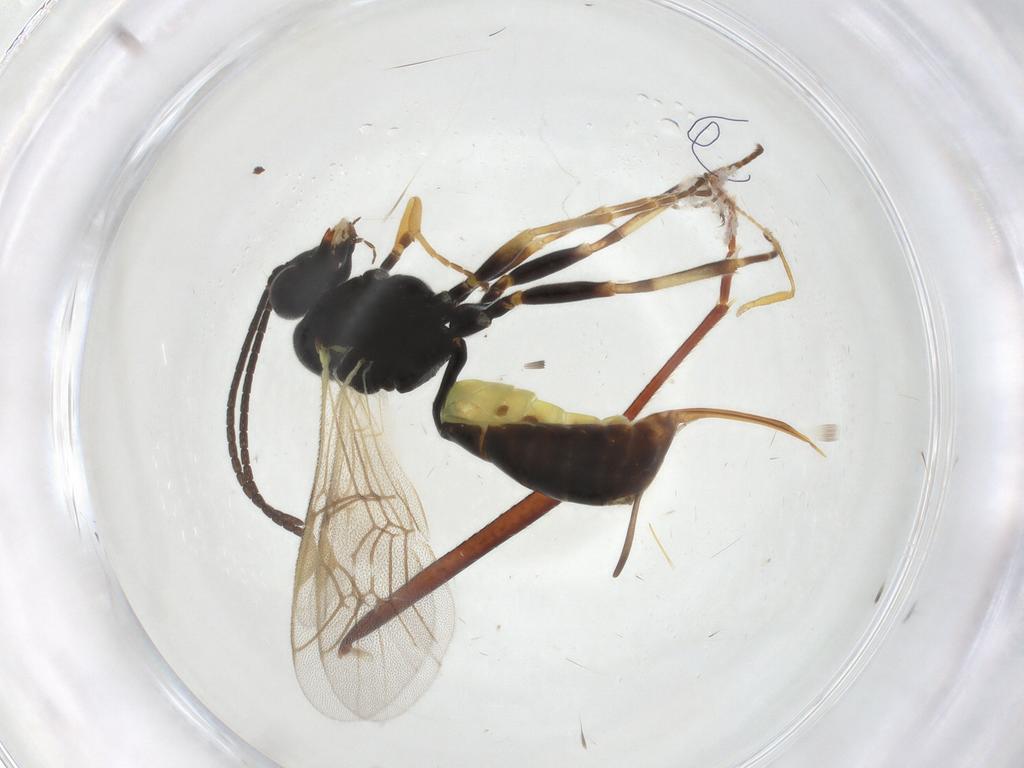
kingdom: Animalia
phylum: Arthropoda
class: Insecta
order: Hymenoptera
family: Ichneumonidae
